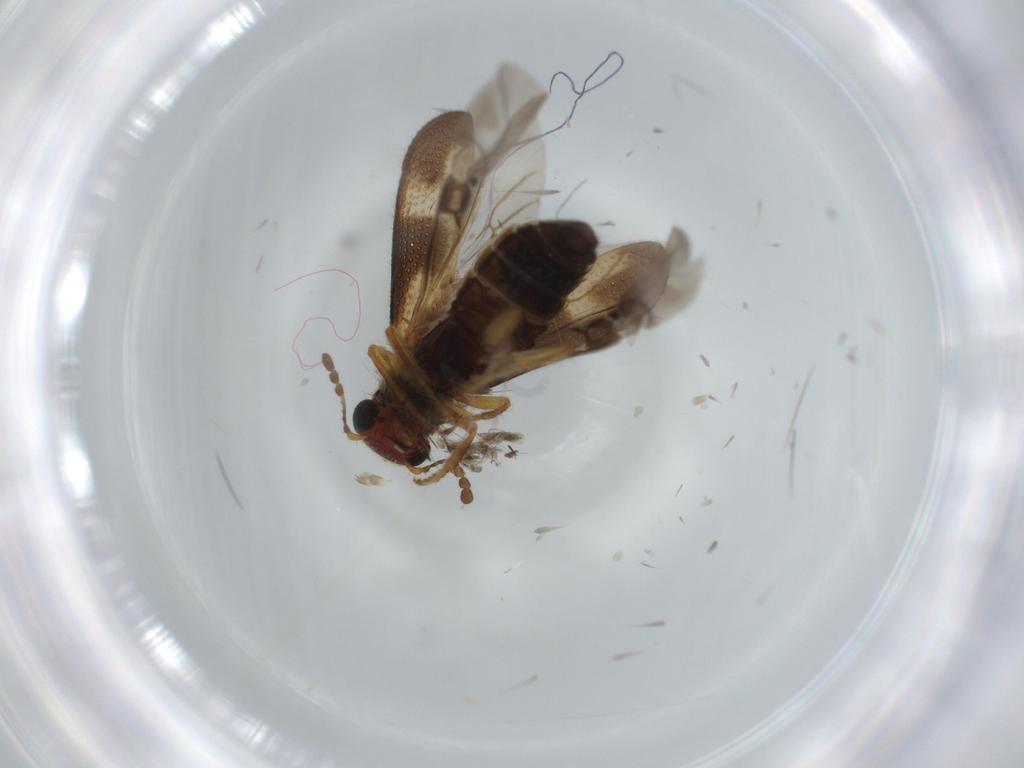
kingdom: Animalia
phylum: Arthropoda
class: Insecta
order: Coleoptera
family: Cleridae
